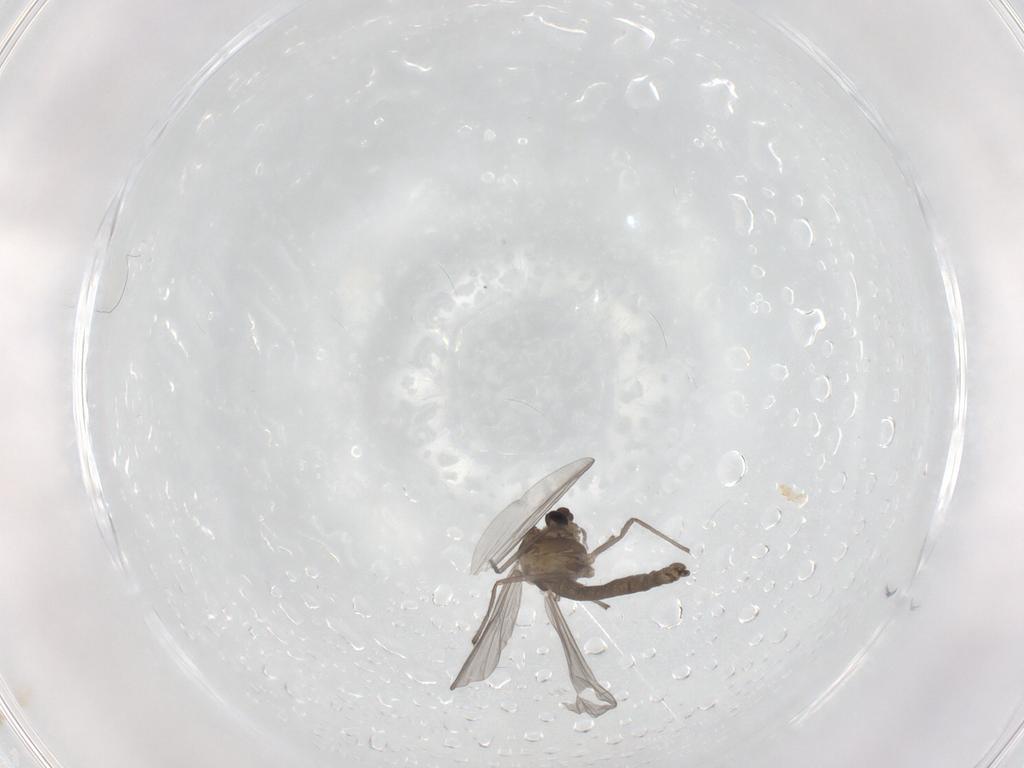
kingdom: Animalia
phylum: Arthropoda
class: Insecta
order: Diptera
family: Chironomidae
